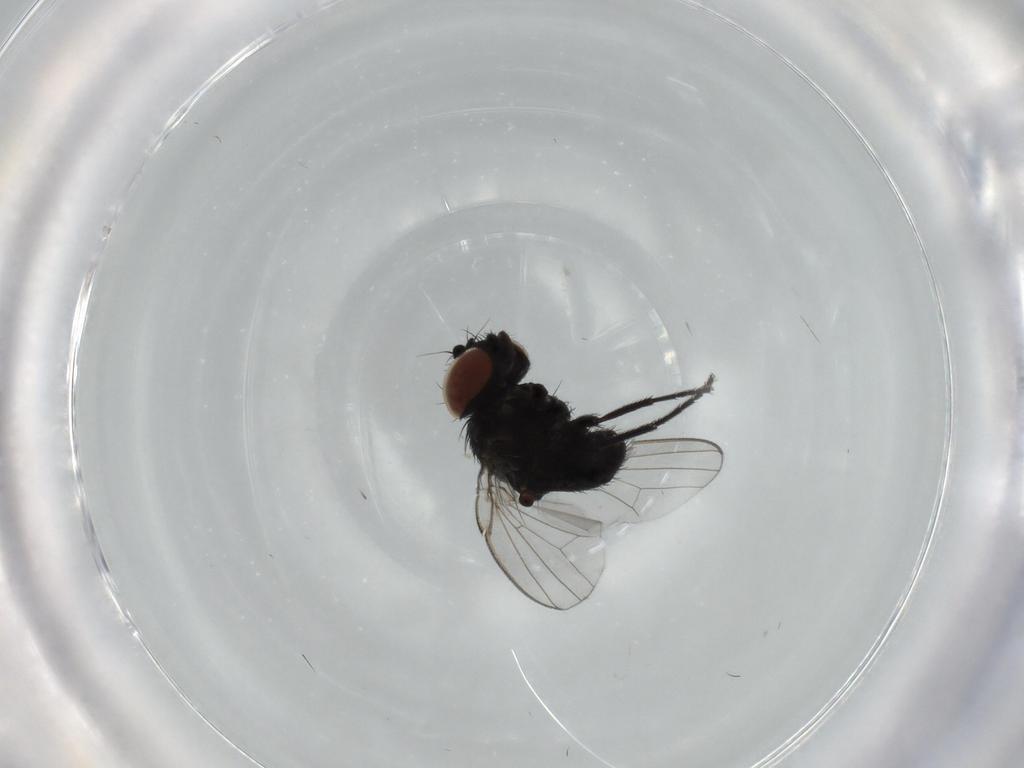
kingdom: Animalia
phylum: Arthropoda
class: Insecta
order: Diptera
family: Milichiidae
